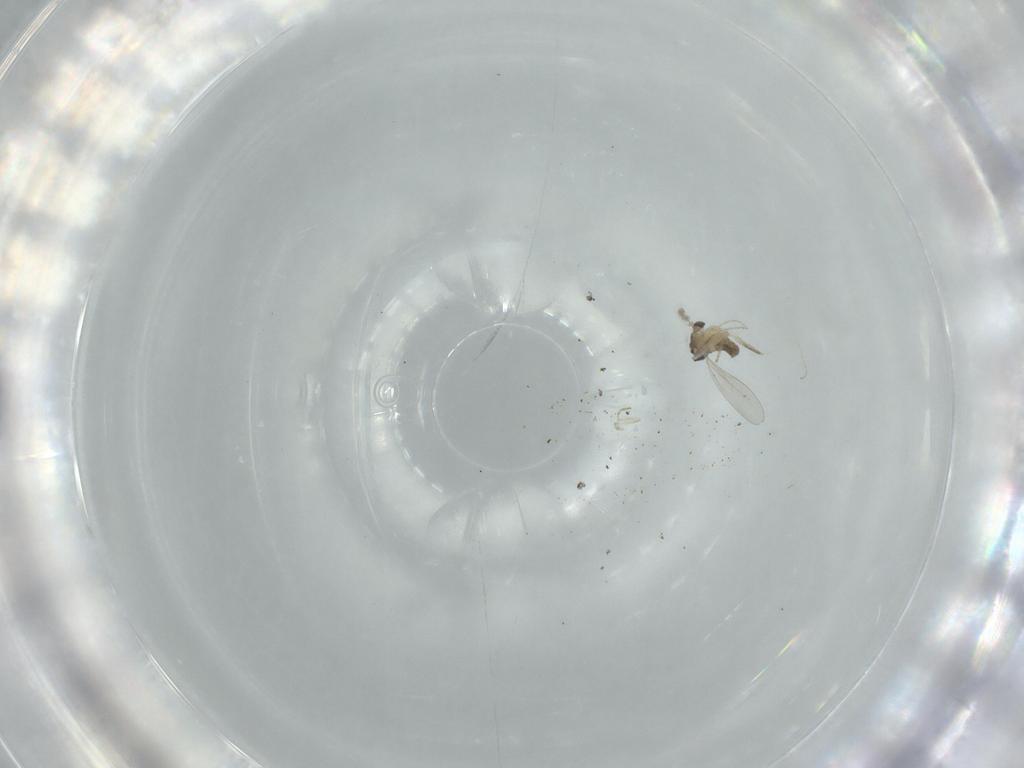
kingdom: Animalia
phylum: Arthropoda
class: Insecta
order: Diptera
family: Cecidomyiidae
